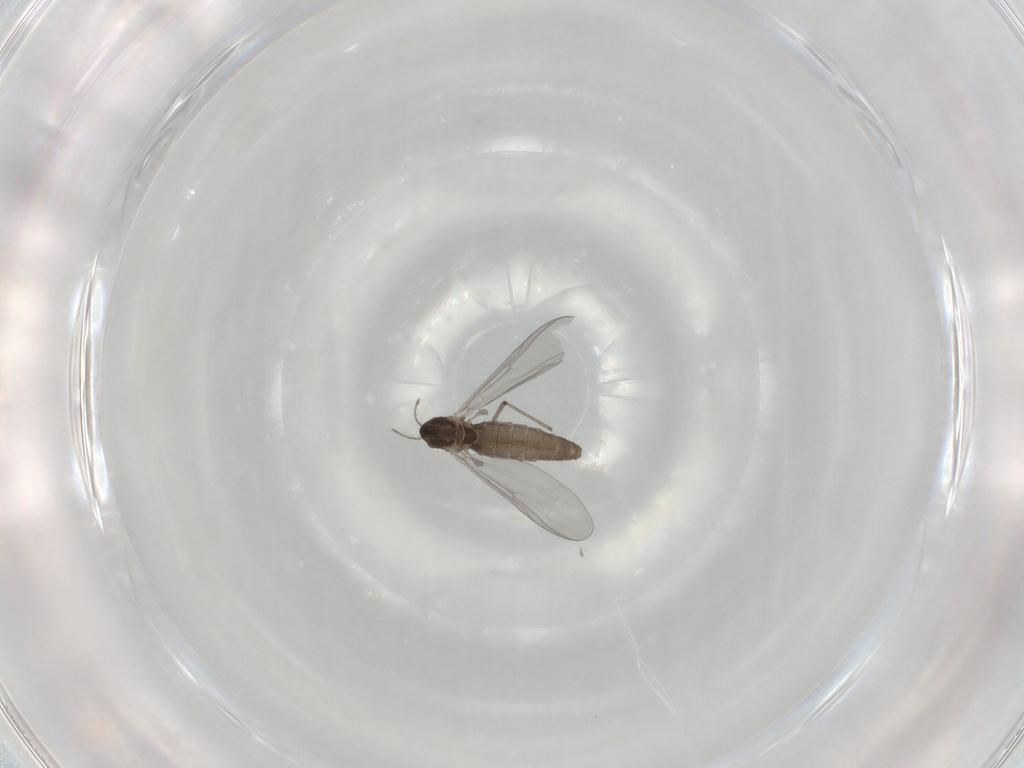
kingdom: Animalia
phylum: Arthropoda
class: Insecta
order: Diptera
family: Chironomidae
